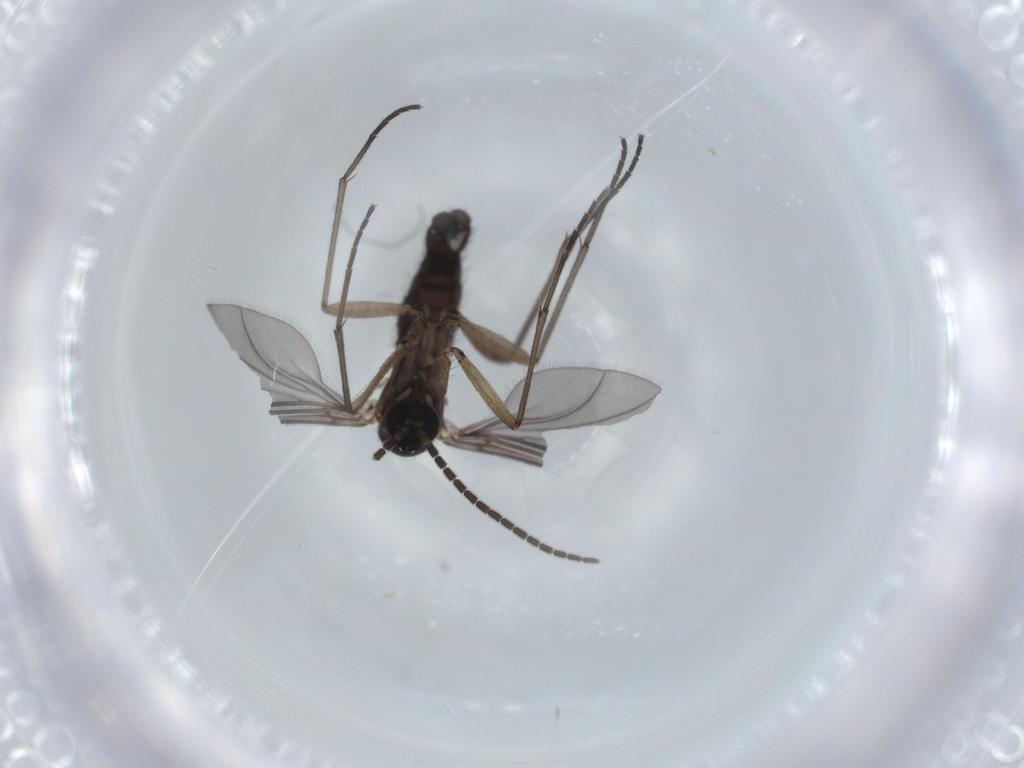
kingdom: Animalia
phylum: Arthropoda
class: Insecta
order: Diptera
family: Sciaridae
